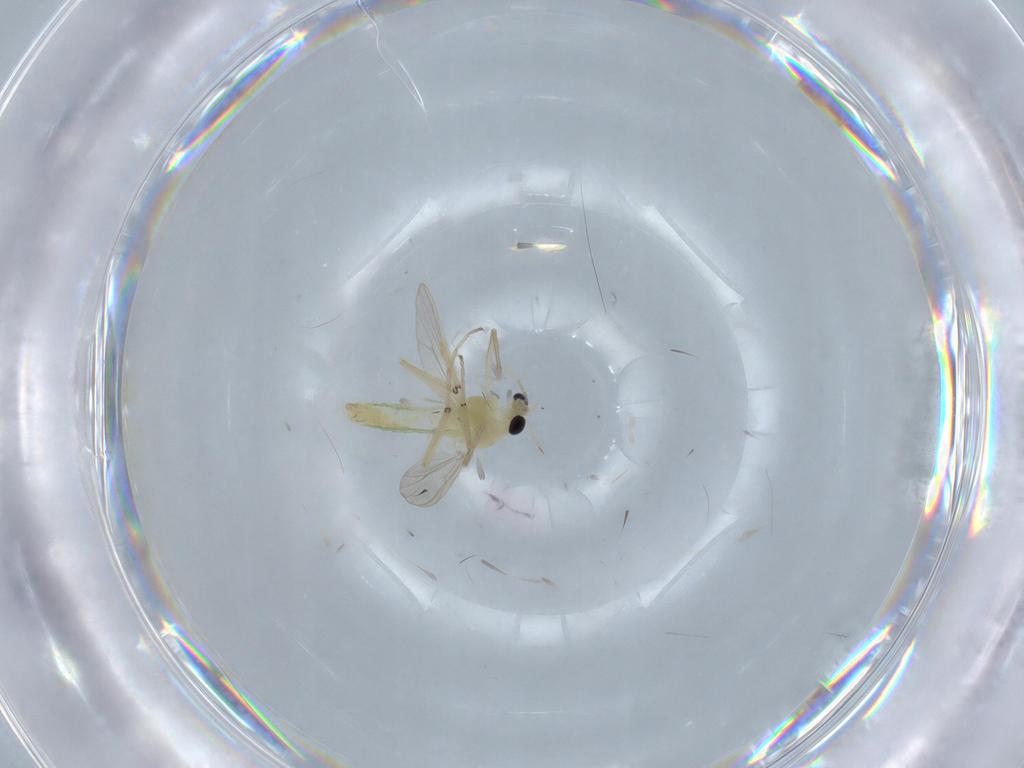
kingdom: Animalia
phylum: Arthropoda
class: Insecta
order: Diptera
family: Chironomidae
